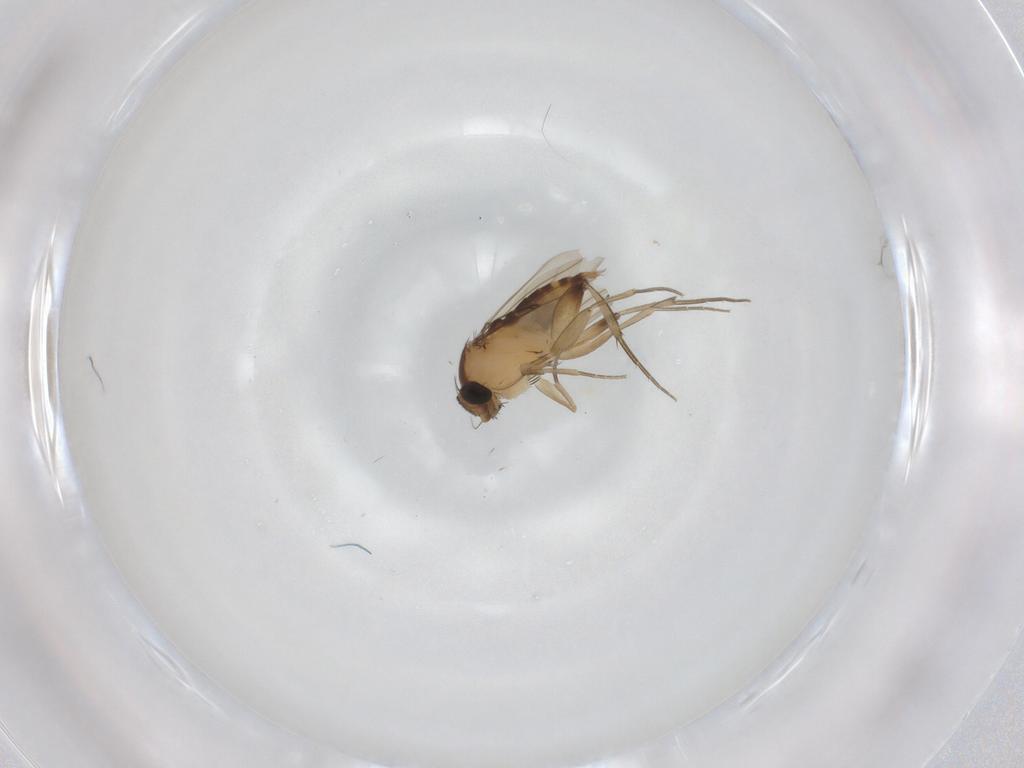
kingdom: Animalia
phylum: Arthropoda
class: Insecta
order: Diptera
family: Phoridae
